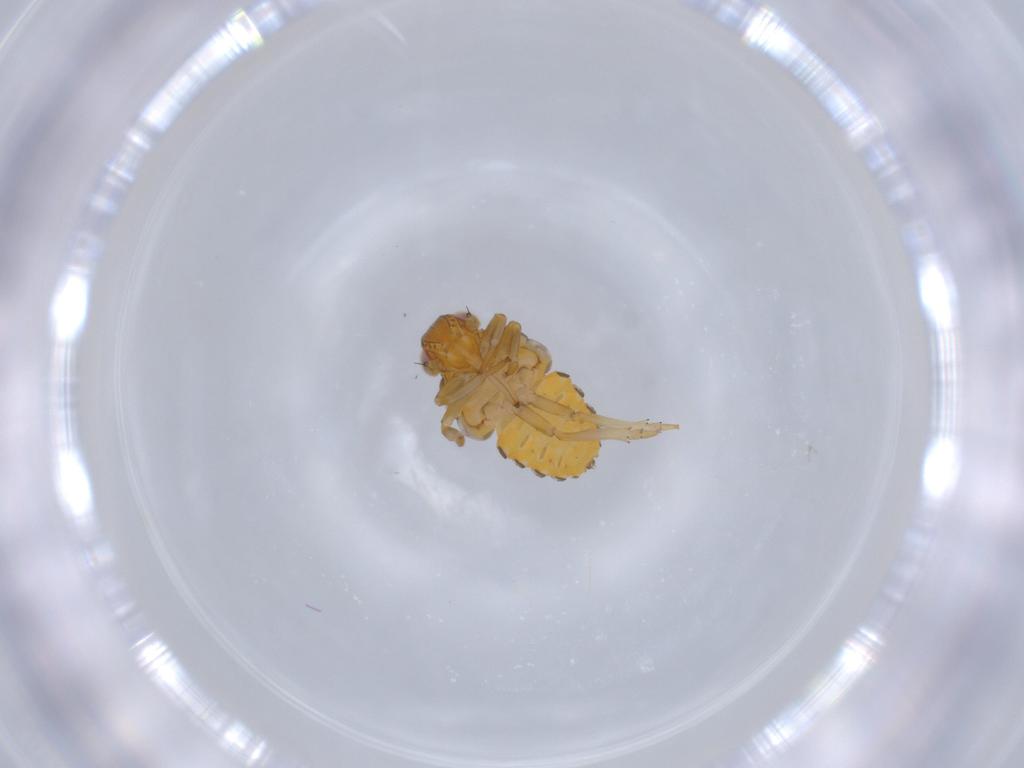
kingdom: Animalia
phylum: Arthropoda
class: Insecta
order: Hemiptera
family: Issidae
